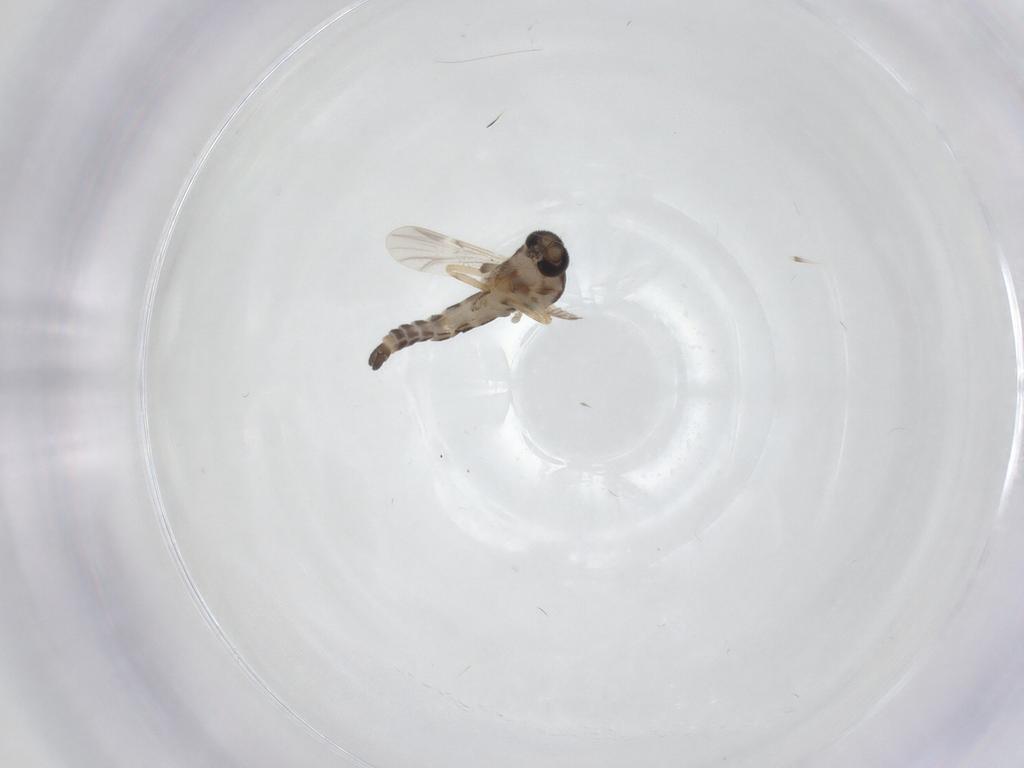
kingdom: Animalia
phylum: Arthropoda
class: Insecta
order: Diptera
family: Ceratopogonidae
